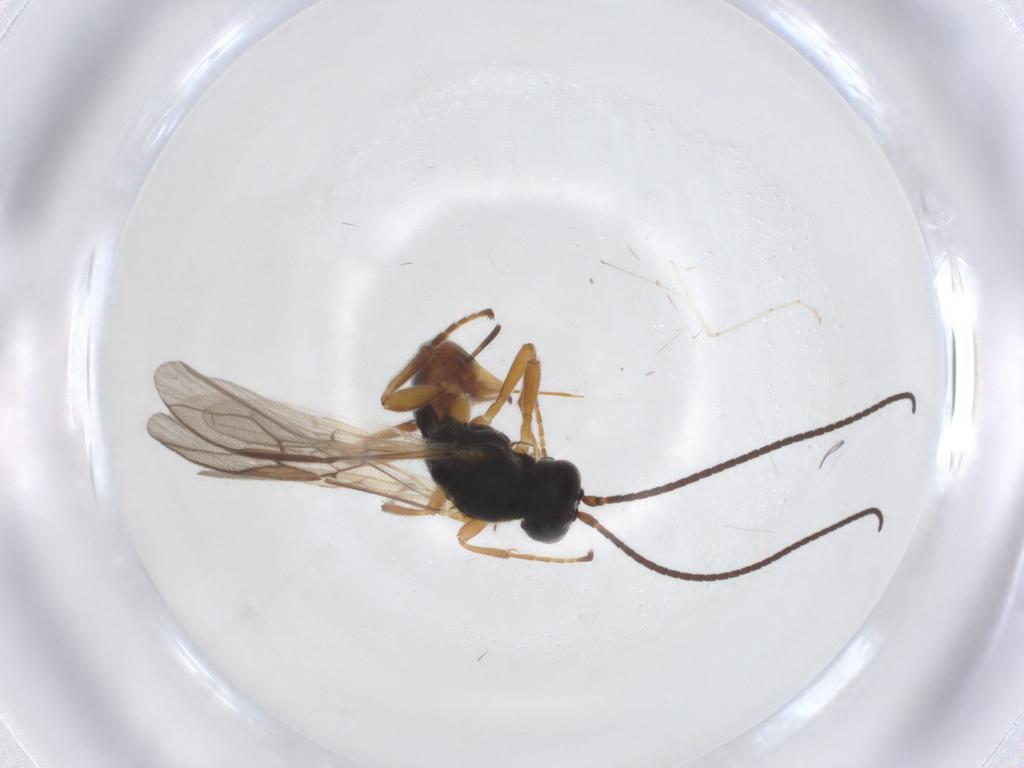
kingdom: Animalia
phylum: Arthropoda
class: Insecta
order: Hymenoptera
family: Braconidae
